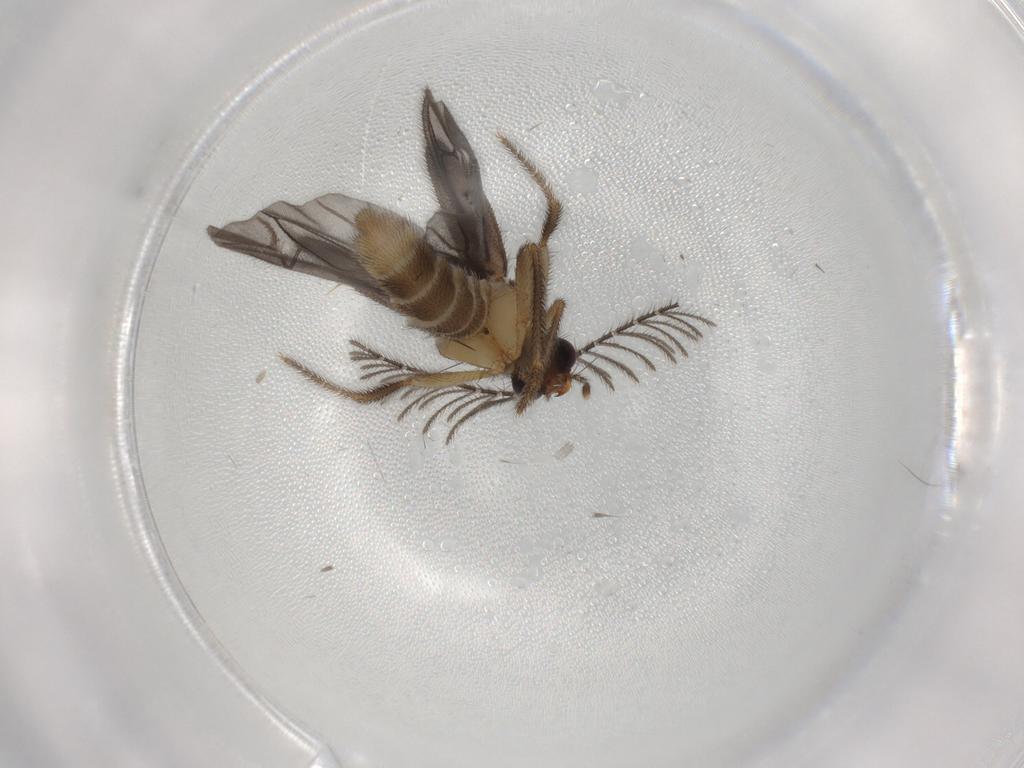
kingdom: Animalia
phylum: Arthropoda
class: Insecta
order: Coleoptera
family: Phengodidae
